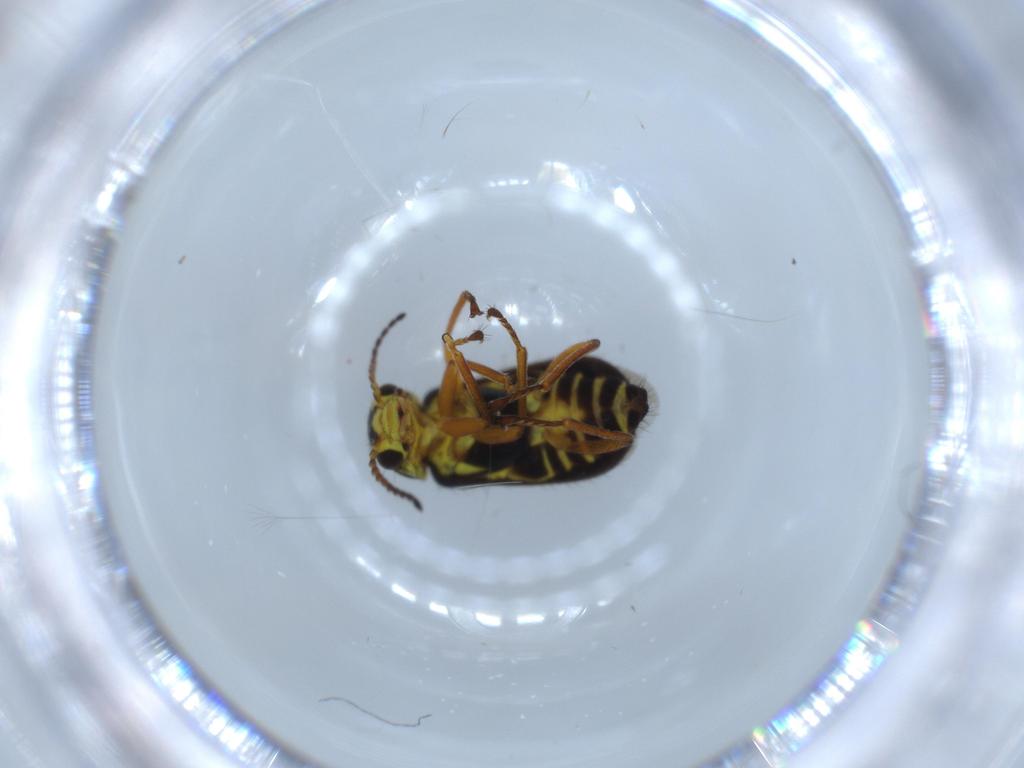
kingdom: Animalia
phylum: Arthropoda
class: Insecta
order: Coleoptera
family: Melyridae
